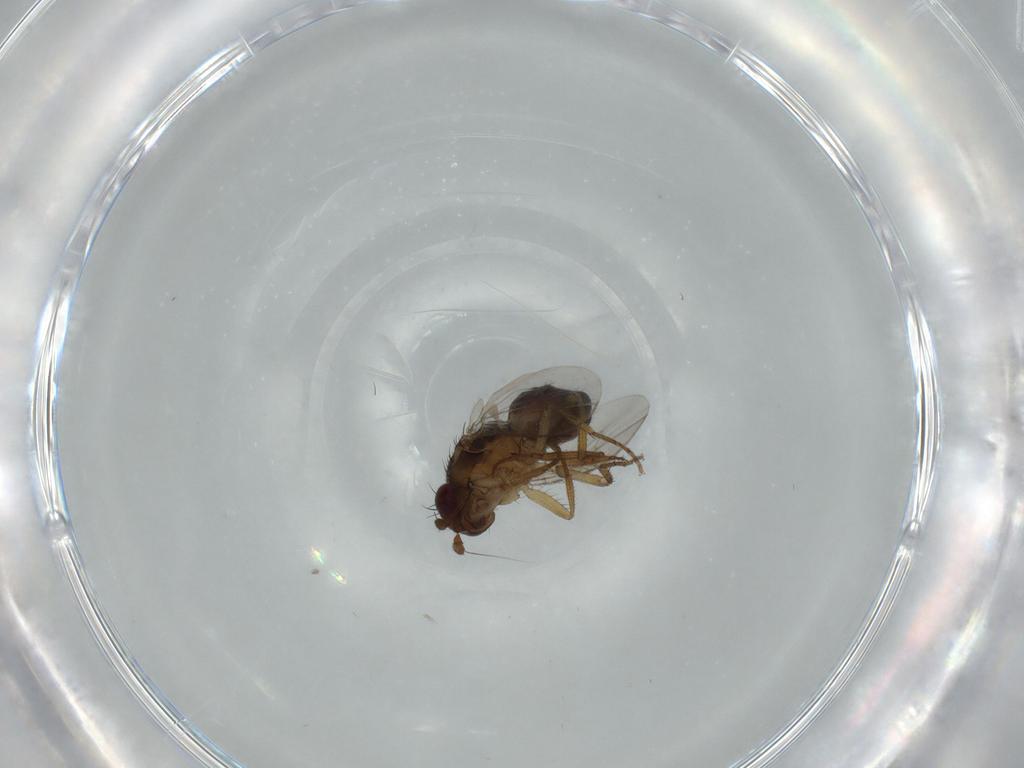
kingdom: Animalia
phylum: Arthropoda
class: Insecta
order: Diptera
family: Sphaeroceridae
